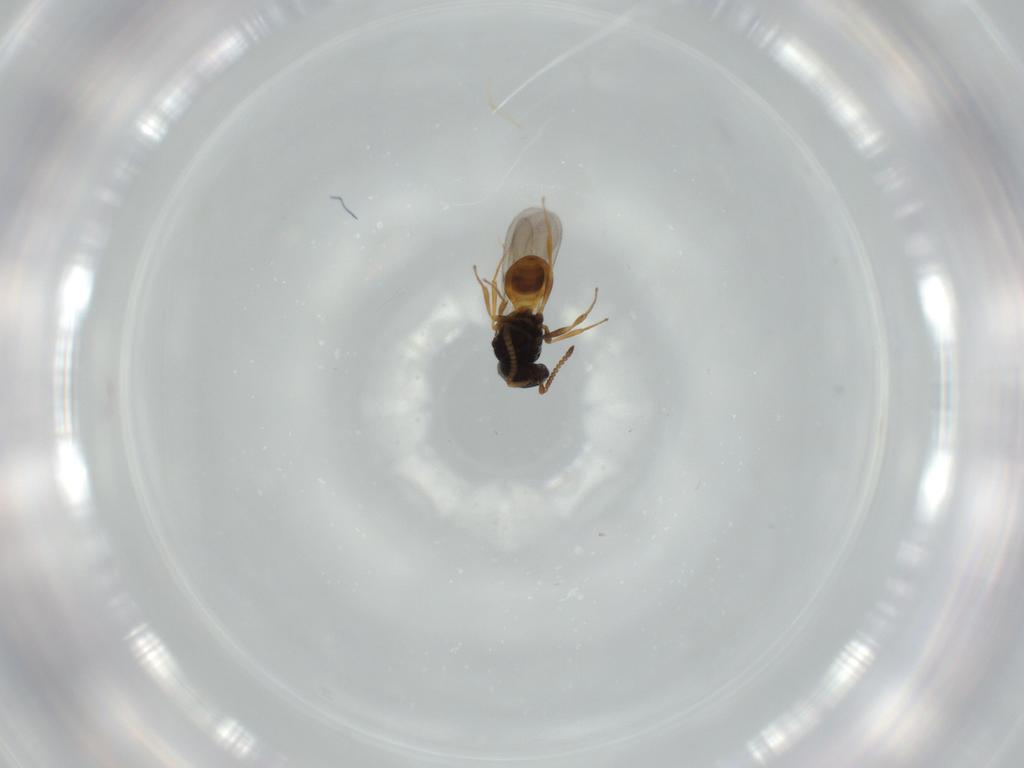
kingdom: Animalia
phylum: Arthropoda
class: Insecta
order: Hymenoptera
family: Scelionidae
